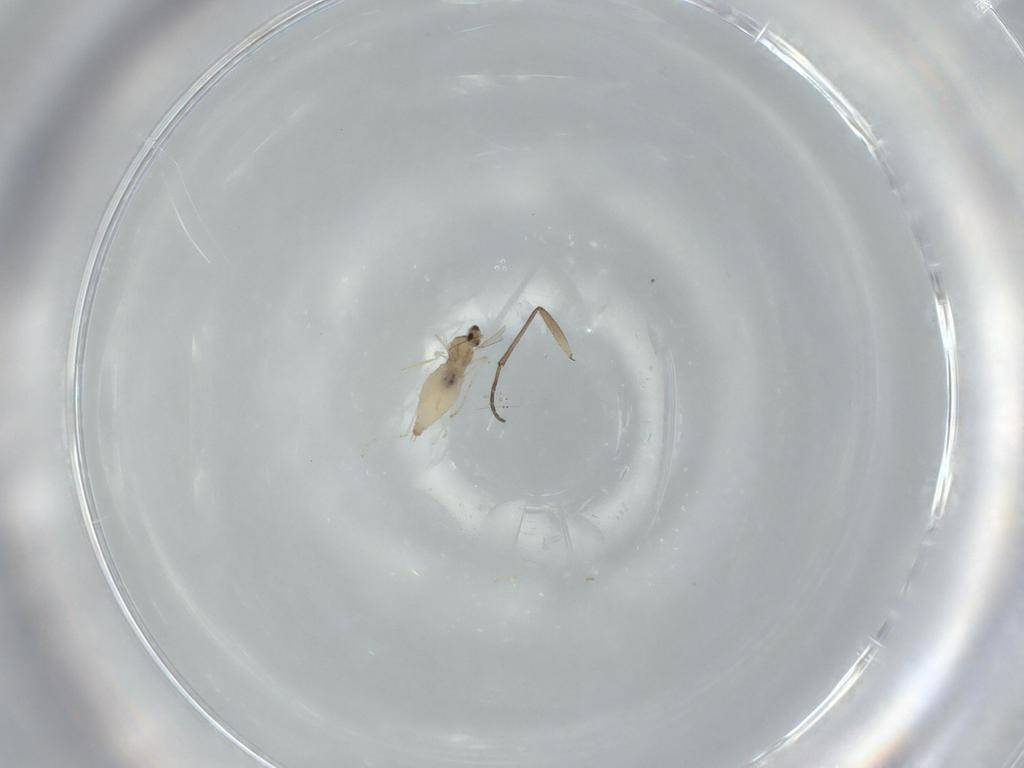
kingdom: Animalia
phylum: Arthropoda
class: Insecta
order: Diptera
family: Cecidomyiidae
